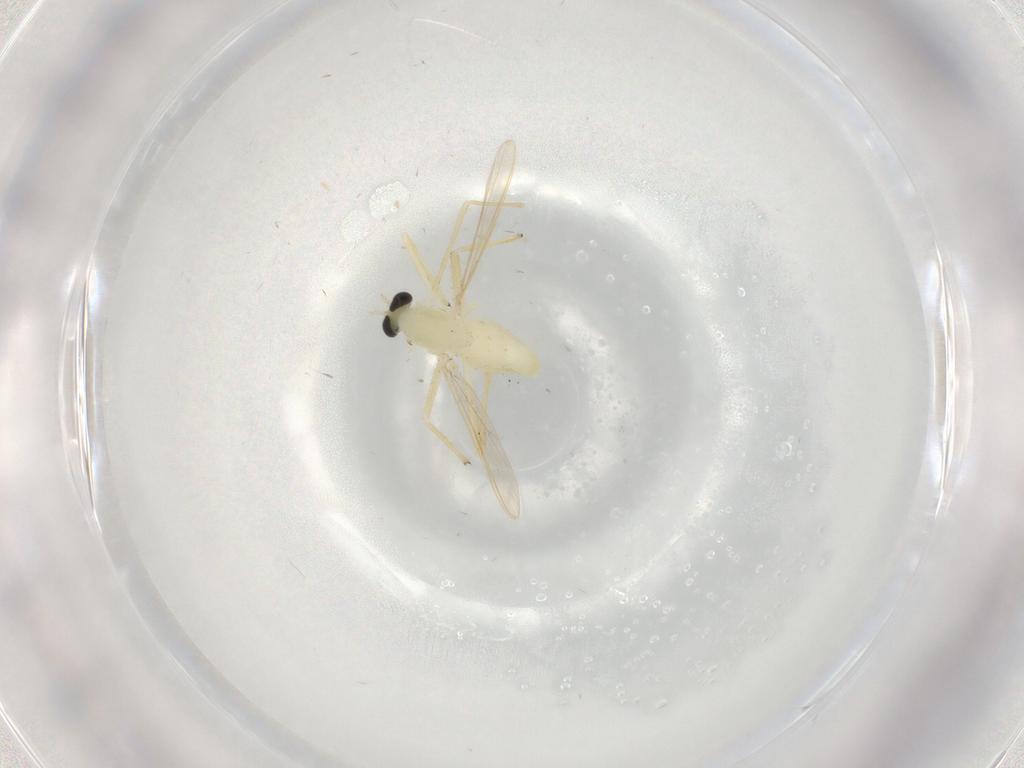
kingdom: Animalia
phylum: Arthropoda
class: Insecta
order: Diptera
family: Chironomidae
